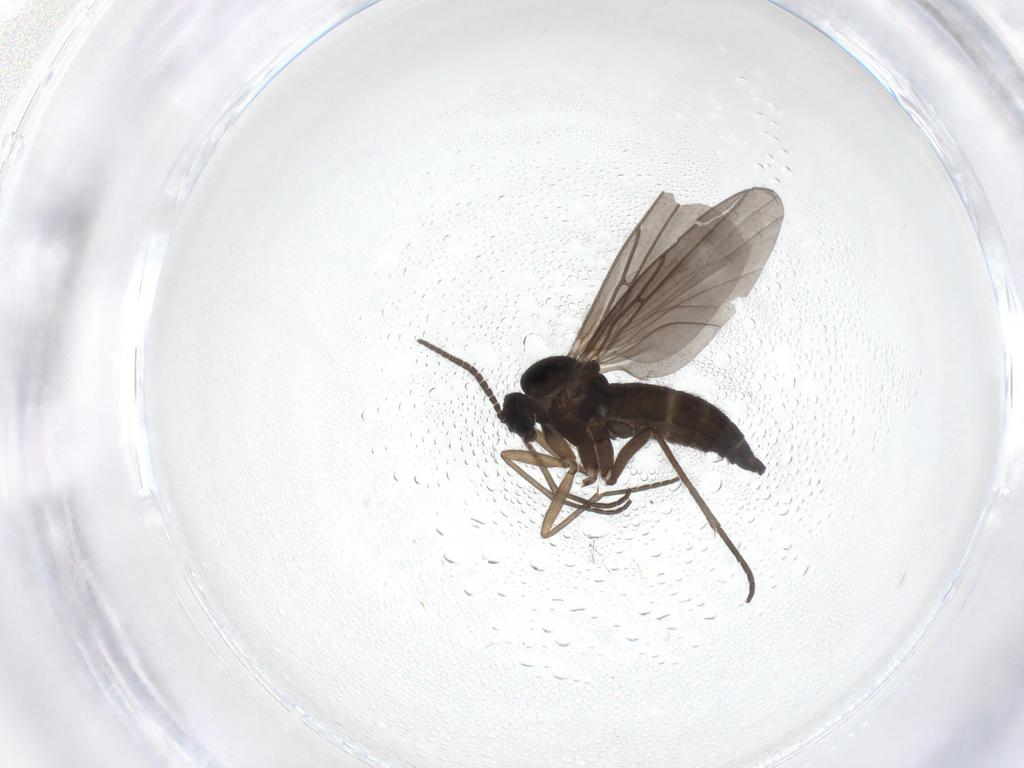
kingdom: Animalia
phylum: Arthropoda
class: Insecta
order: Diptera
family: Sciaridae
